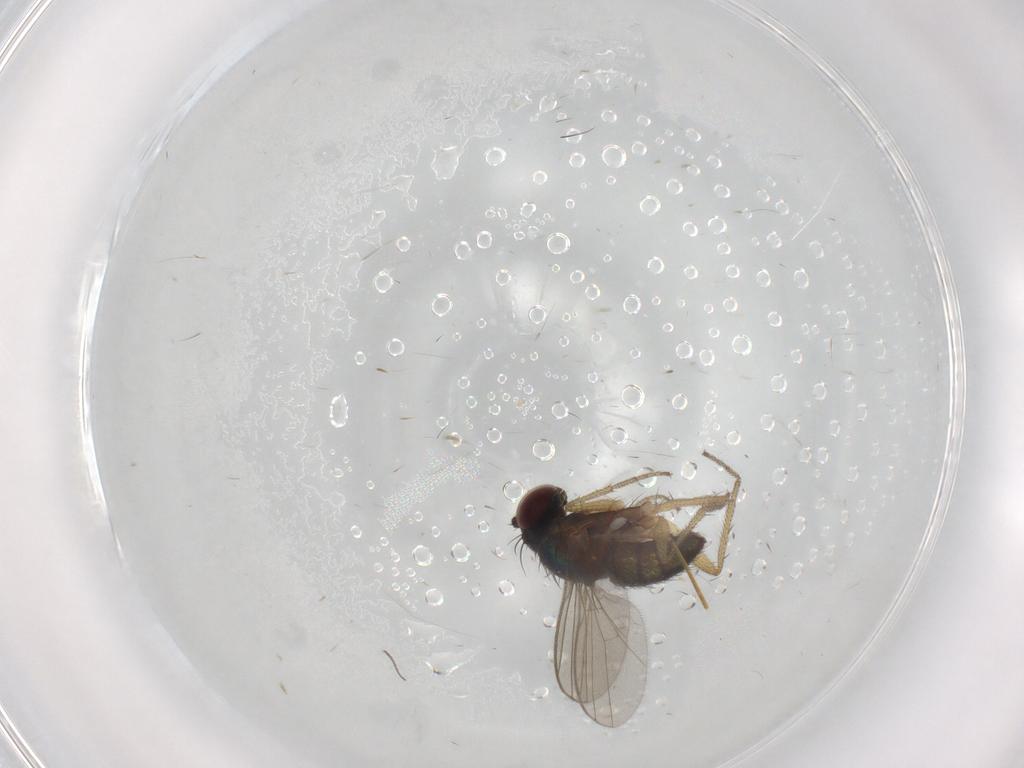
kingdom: Animalia
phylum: Arthropoda
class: Insecta
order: Diptera
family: Cecidomyiidae
